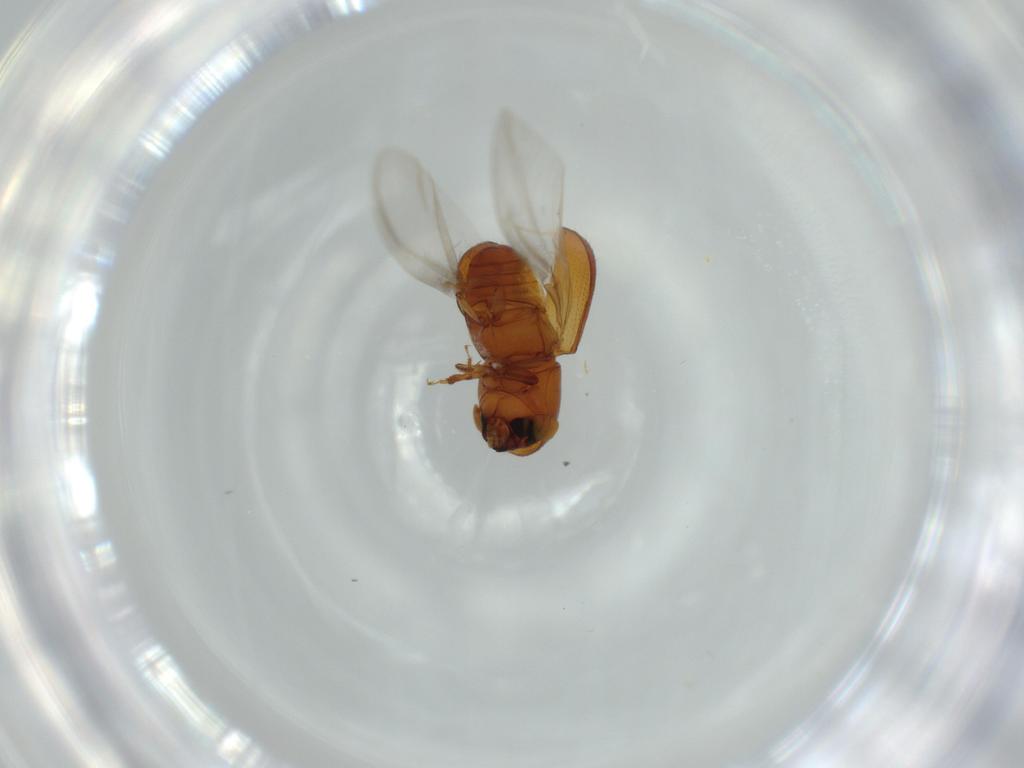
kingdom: Animalia
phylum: Arthropoda
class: Insecta
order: Coleoptera
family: Curculionidae
